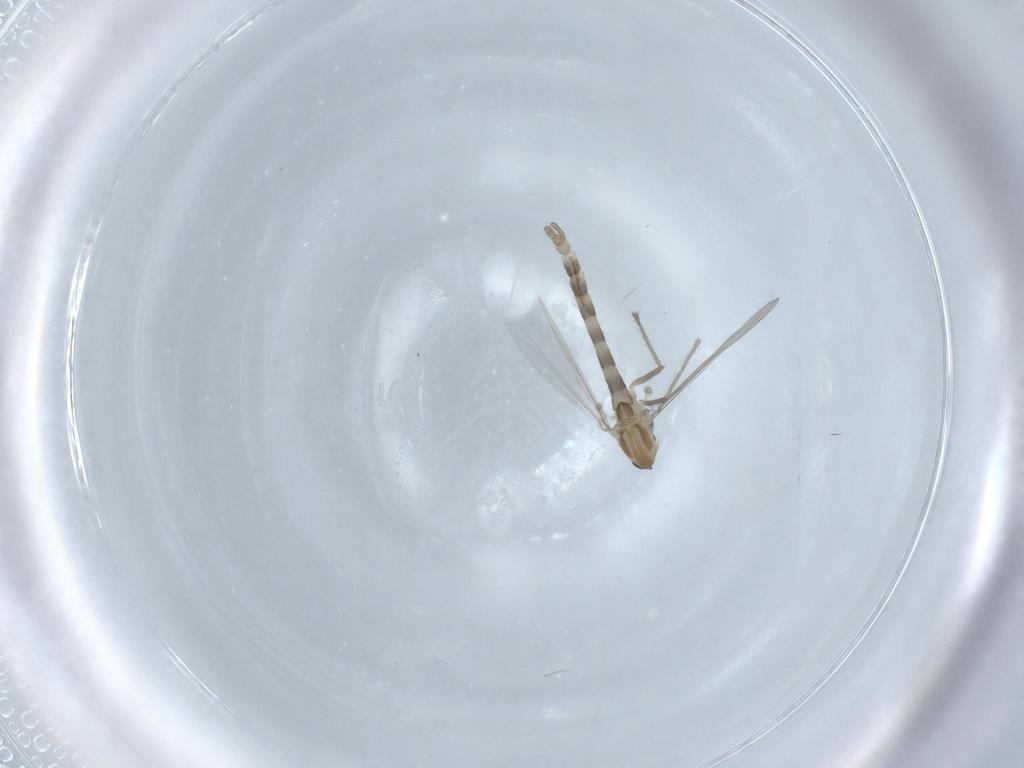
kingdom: Animalia
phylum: Arthropoda
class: Insecta
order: Diptera
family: Chironomidae
